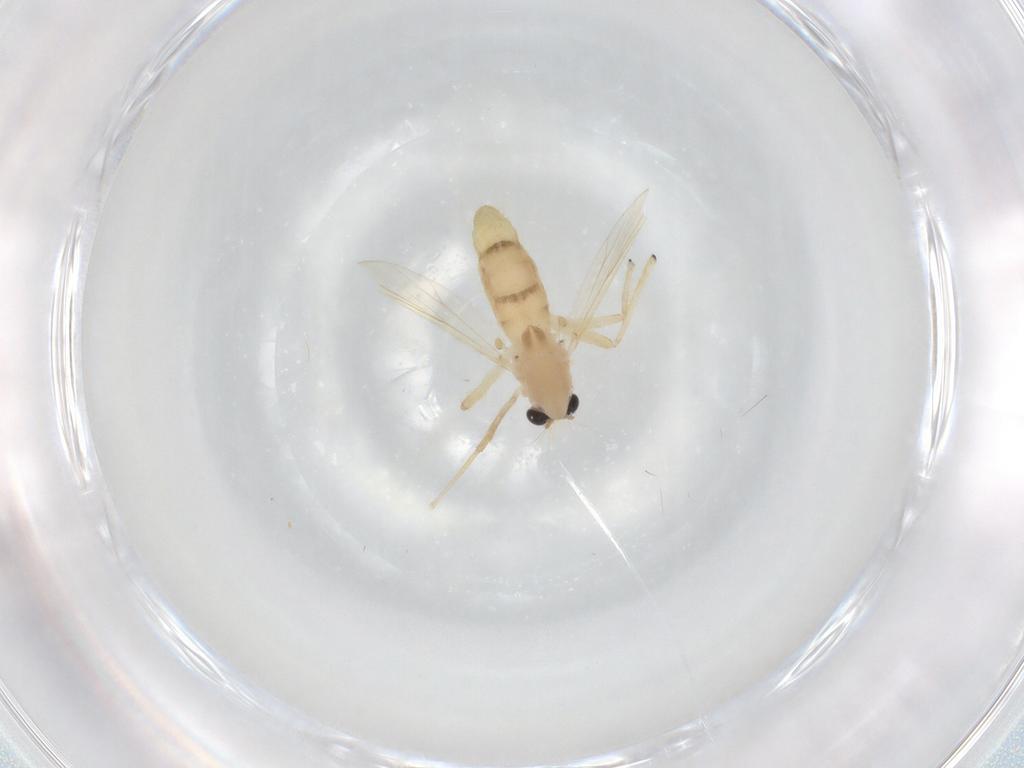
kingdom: Animalia
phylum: Arthropoda
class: Insecta
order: Diptera
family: Chironomidae
